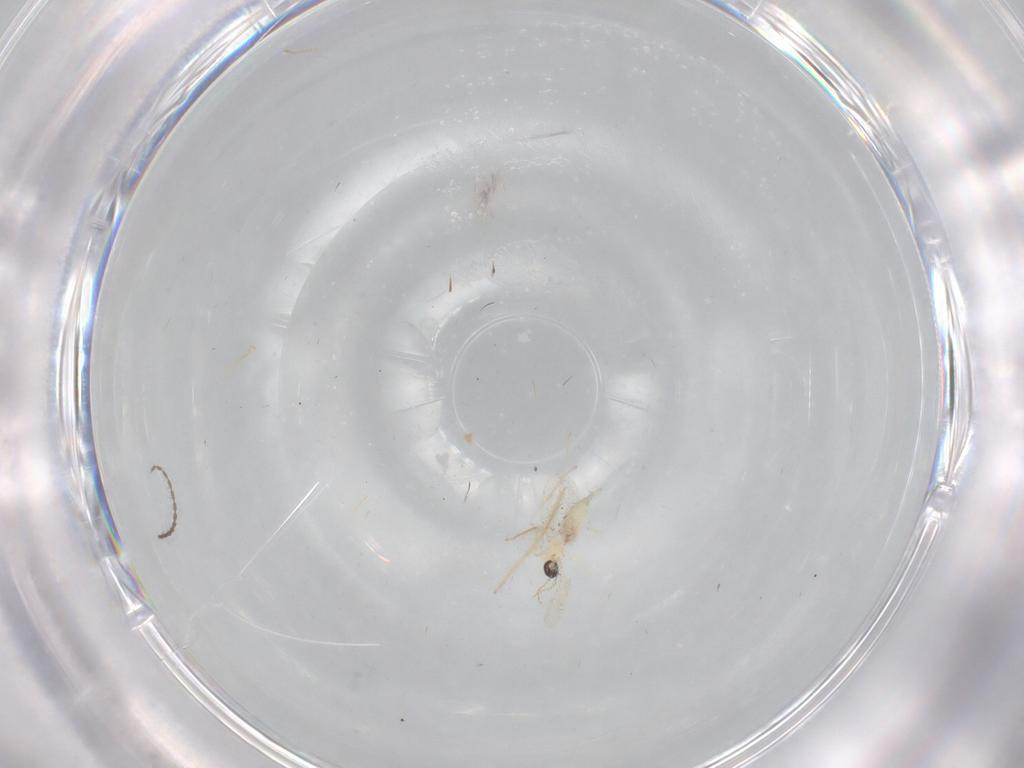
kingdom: Animalia
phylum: Arthropoda
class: Insecta
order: Diptera
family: Cecidomyiidae
